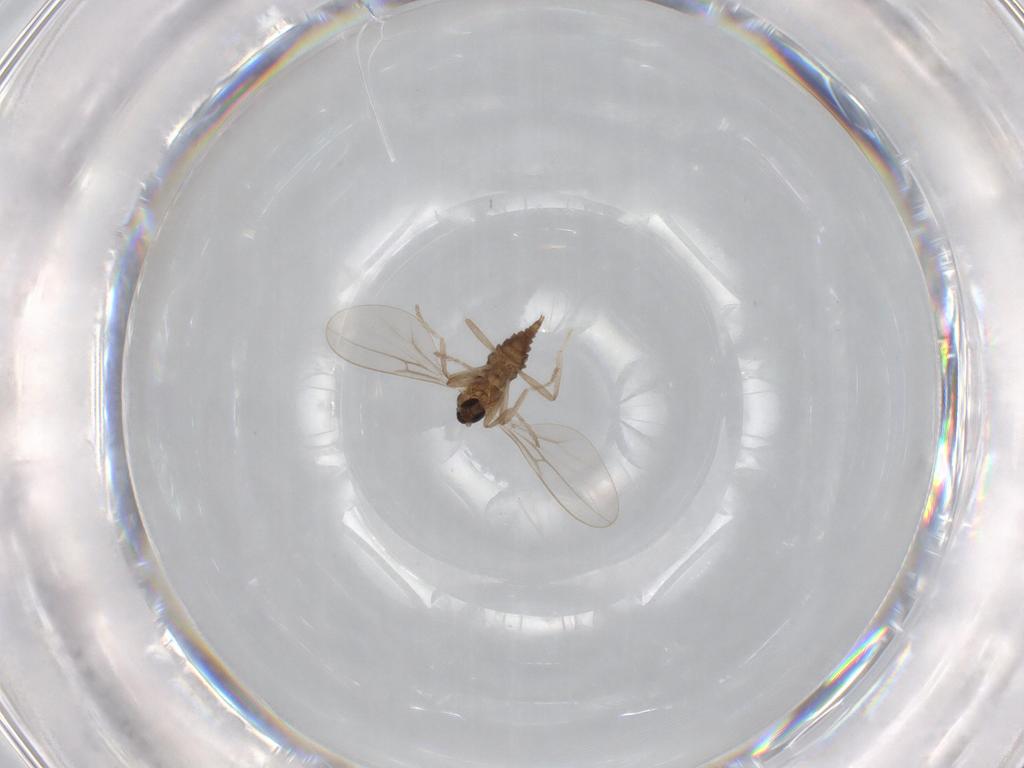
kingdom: Animalia
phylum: Arthropoda
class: Insecta
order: Diptera
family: Cecidomyiidae
